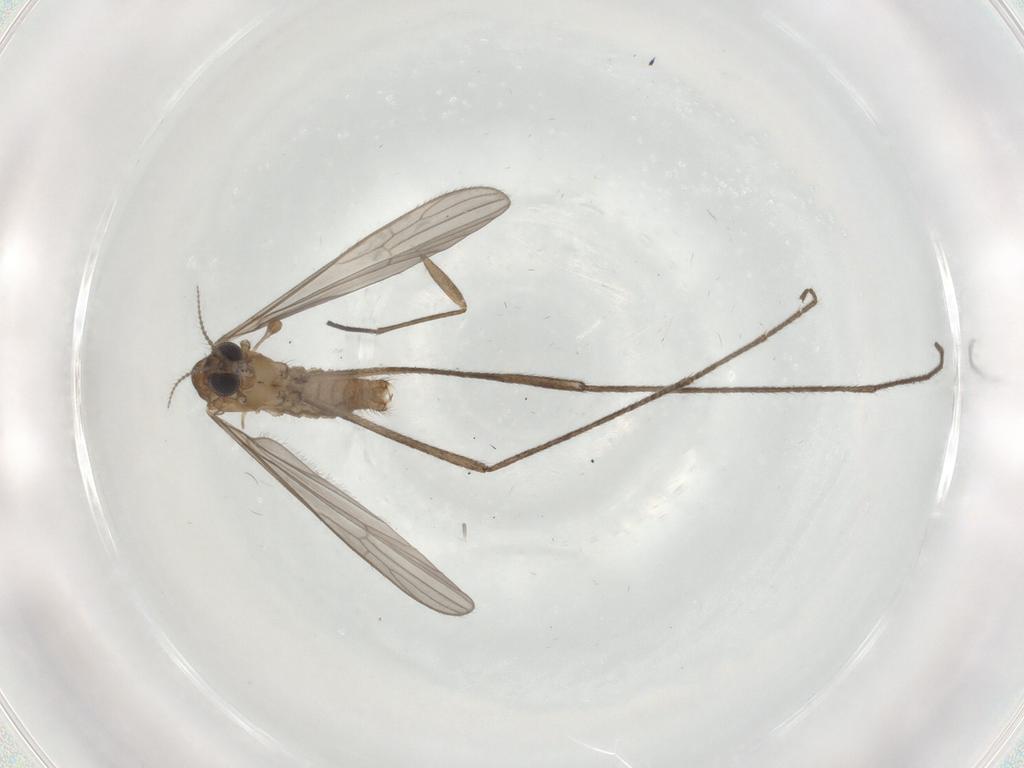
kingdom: Animalia
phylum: Arthropoda
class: Insecta
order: Diptera
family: Limoniidae
